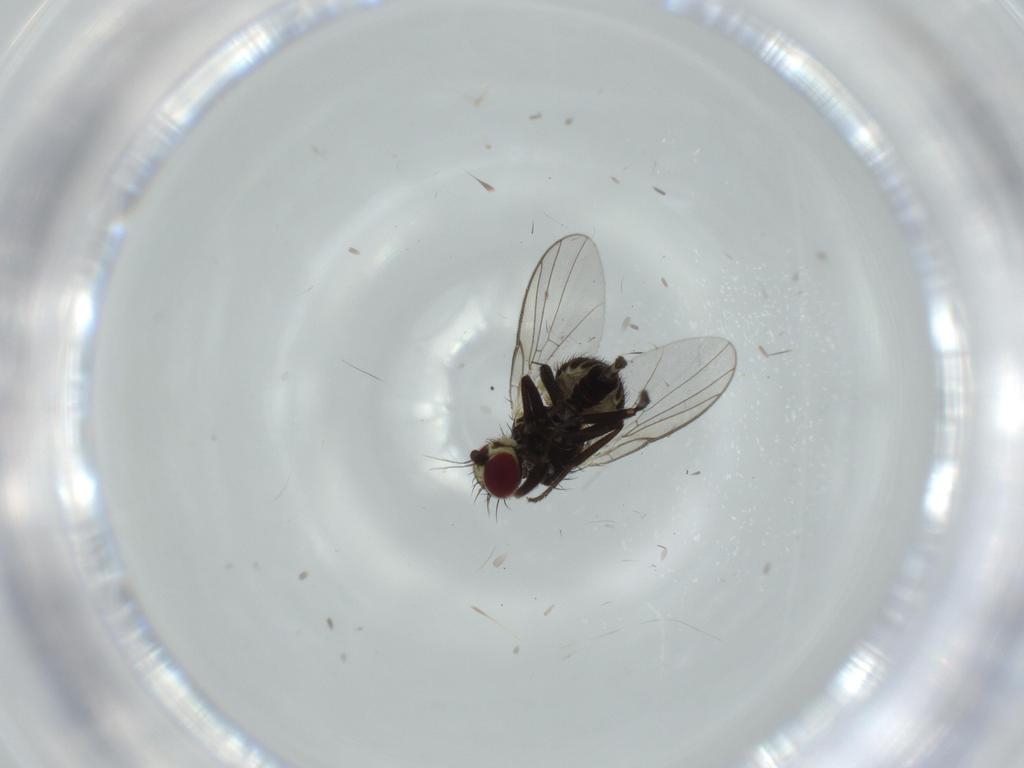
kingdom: Animalia
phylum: Arthropoda
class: Insecta
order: Diptera
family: Agromyzidae
